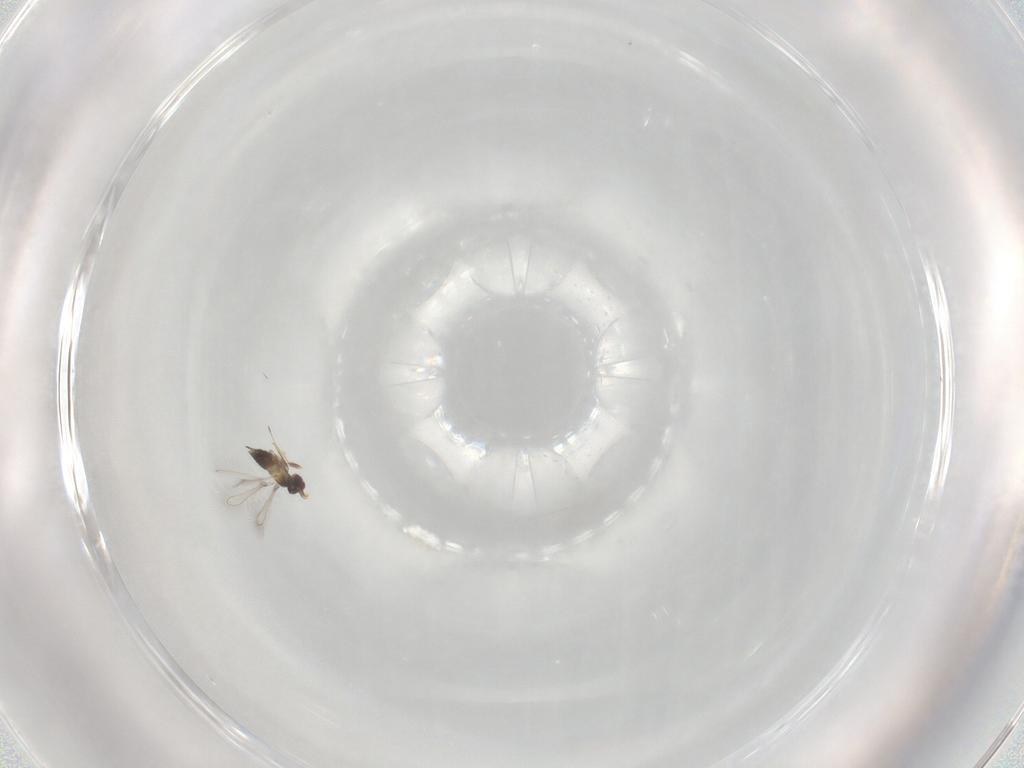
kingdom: Animalia
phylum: Arthropoda
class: Insecta
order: Hymenoptera
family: Mymaridae
